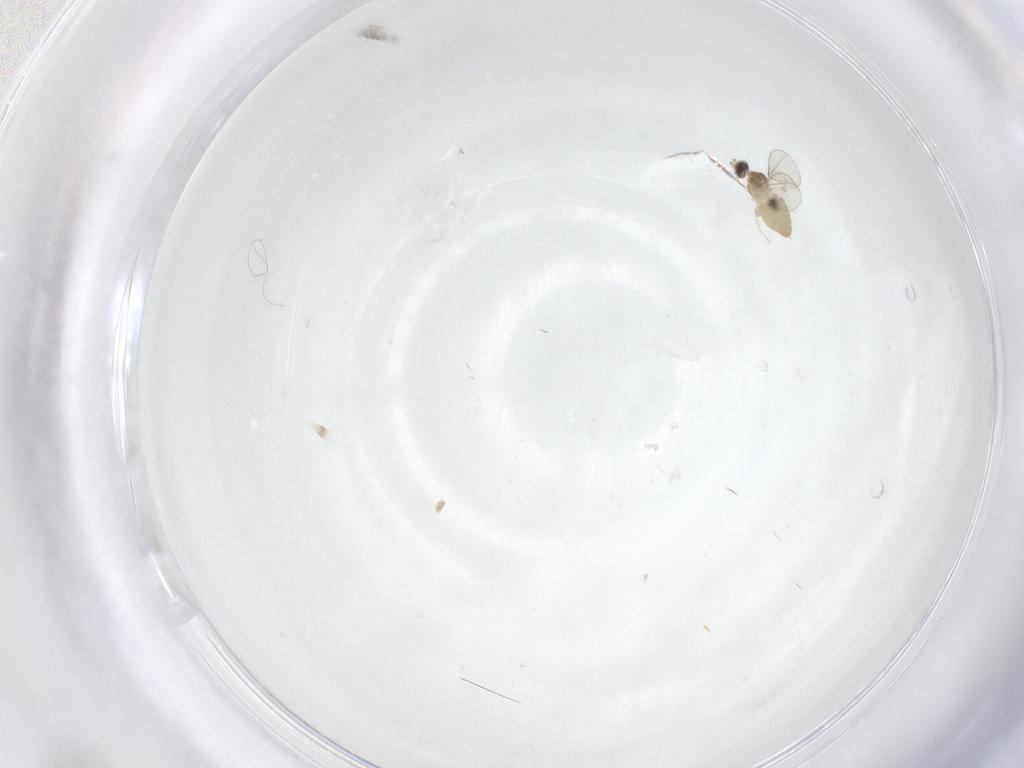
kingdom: Animalia
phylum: Arthropoda
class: Insecta
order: Diptera
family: Cecidomyiidae
